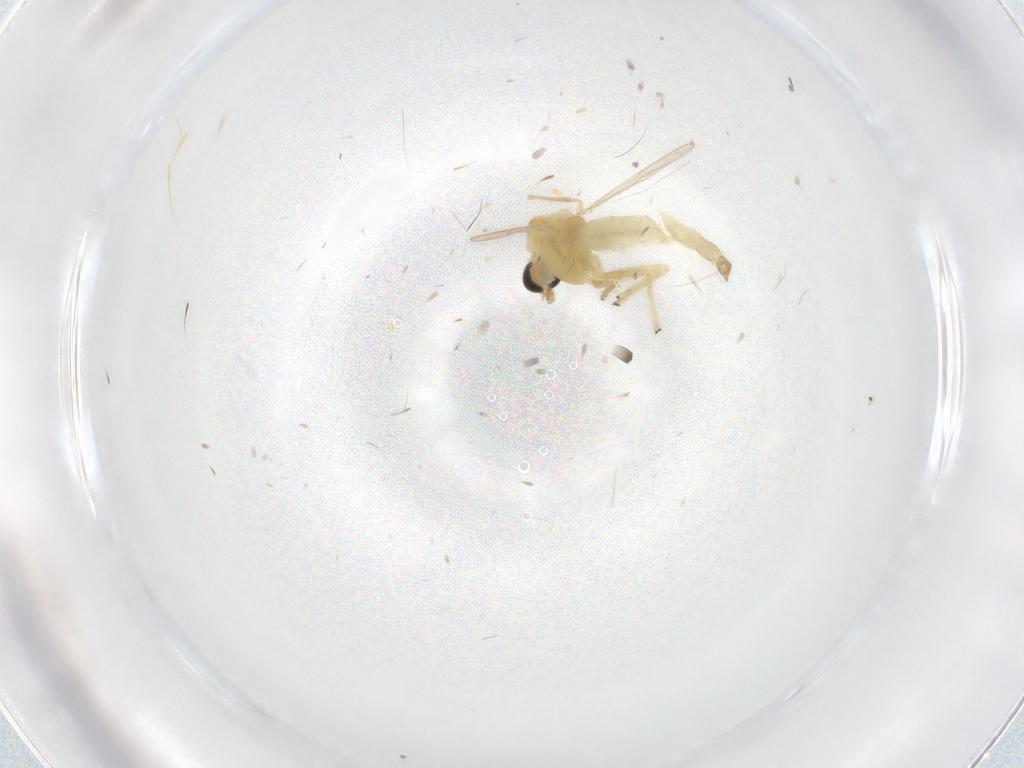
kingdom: Animalia
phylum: Arthropoda
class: Insecta
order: Diptera
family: Chironomidae
